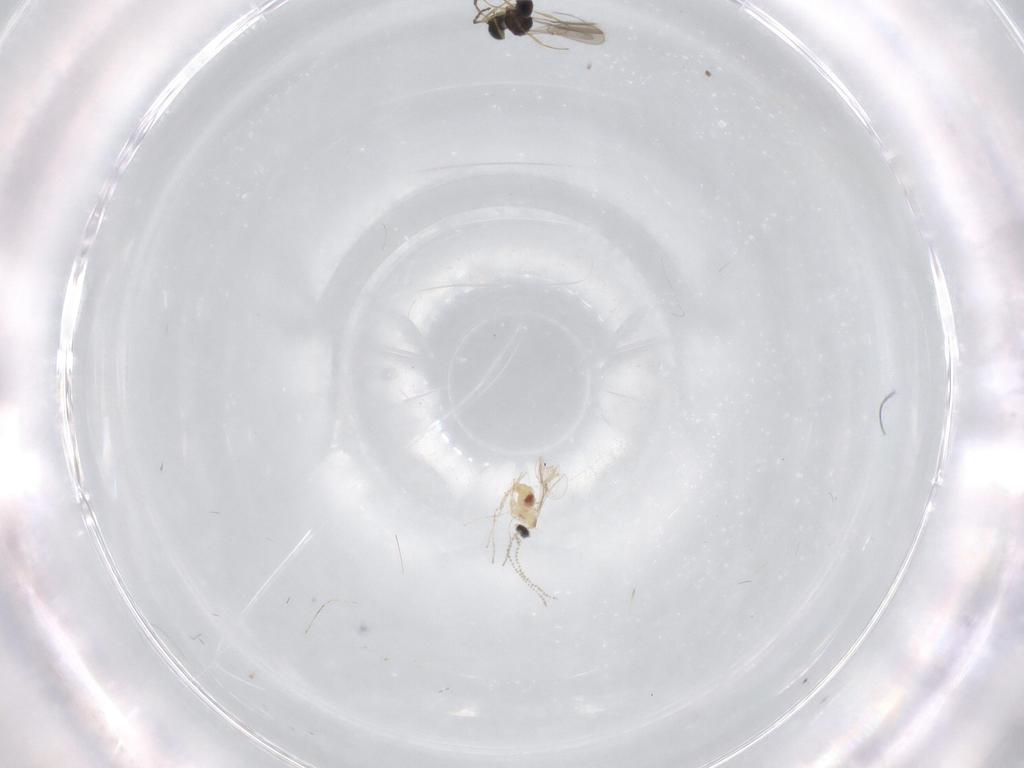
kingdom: Animalia
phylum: Arthropoda
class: Insecta
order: Diptera
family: Cecidomyiidae
